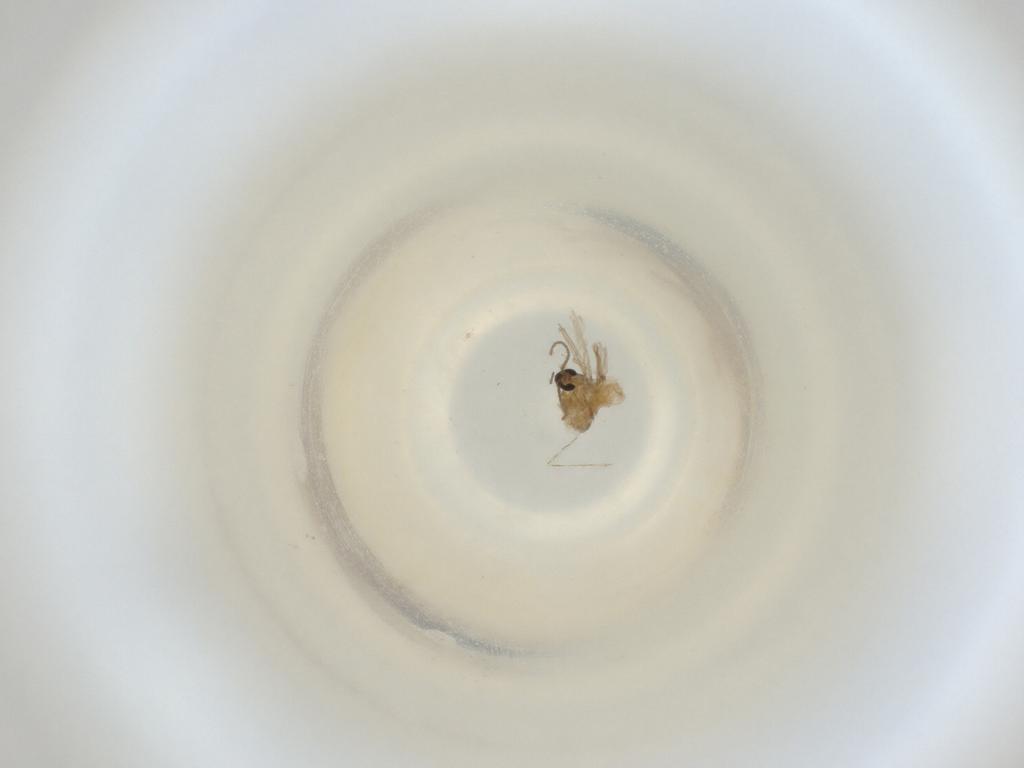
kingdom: Animalia
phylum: Arthropoda
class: Insecta
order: Diptera
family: Cecidomyiidae
